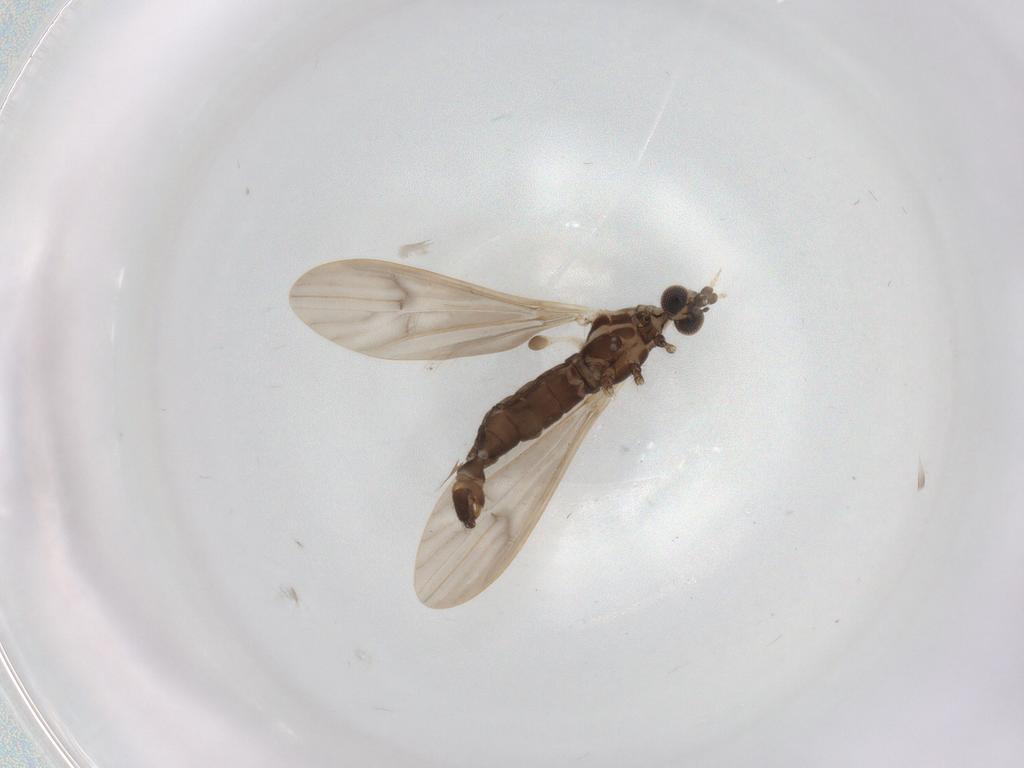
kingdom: Animalia
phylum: Arthropoda
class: Insecta
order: Diptera
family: Limoniidae
